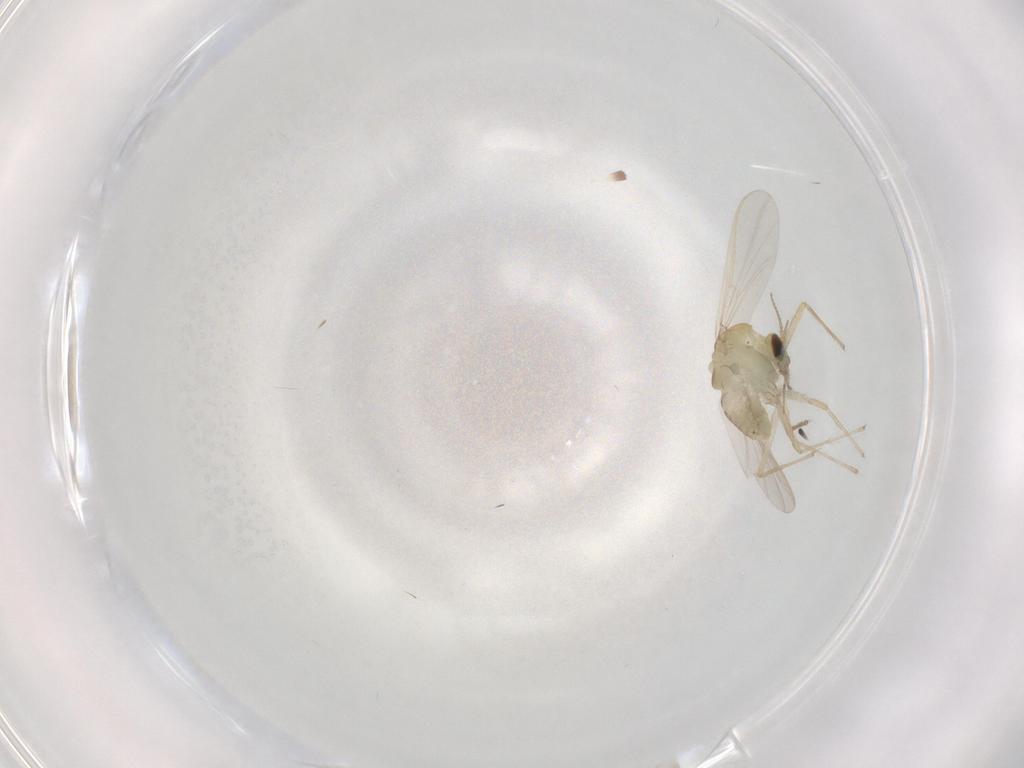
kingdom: Animalia
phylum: Arthropoda
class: Insecta
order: Diptera
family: Chironomidae
